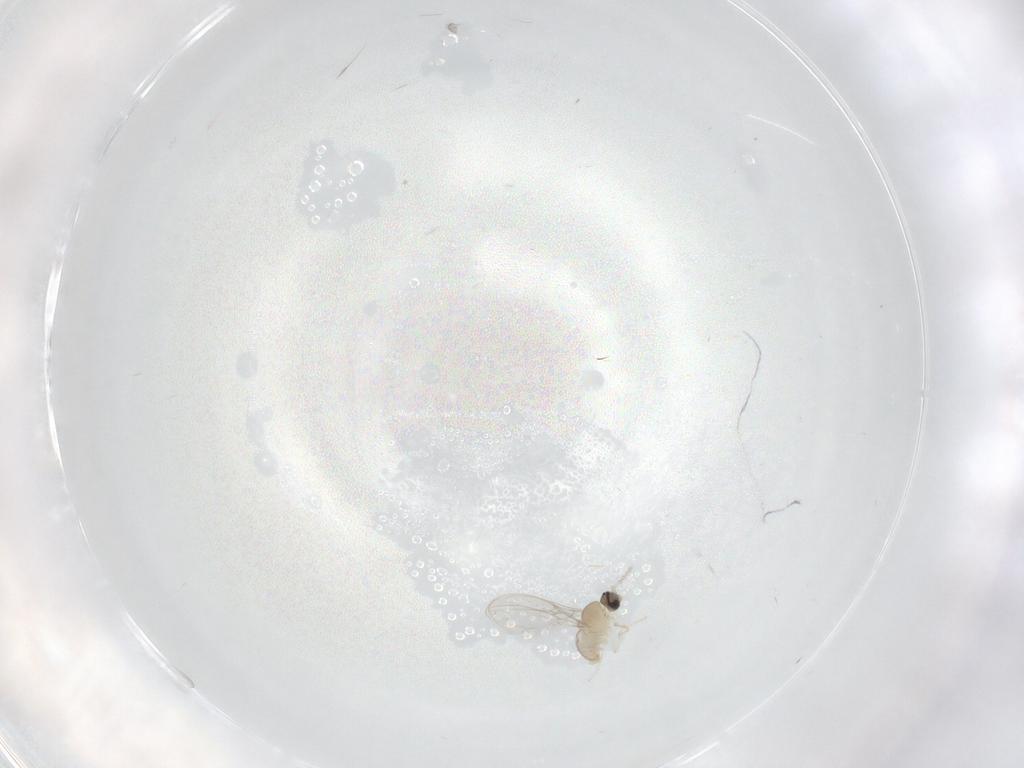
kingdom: Animalia
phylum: Arthropoda
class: Insecta
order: Diptera
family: Cecidomyiidae
